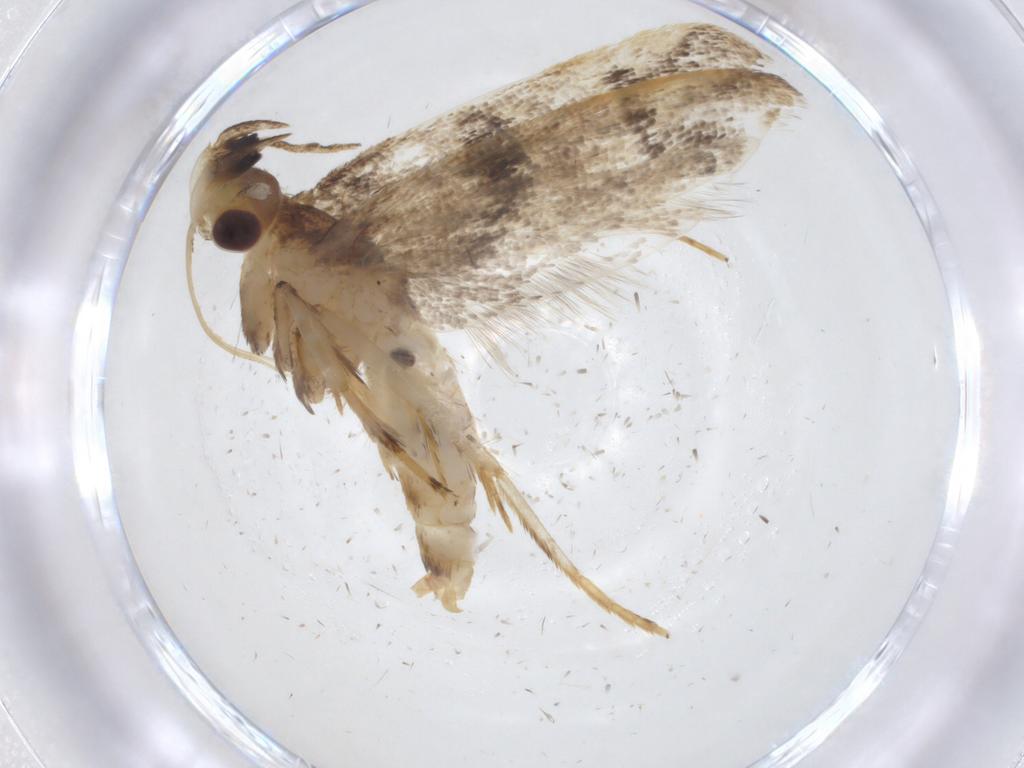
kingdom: Animalia
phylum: Arthropoda
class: Insecta
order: Lepidoptera
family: Lecithoceridae
